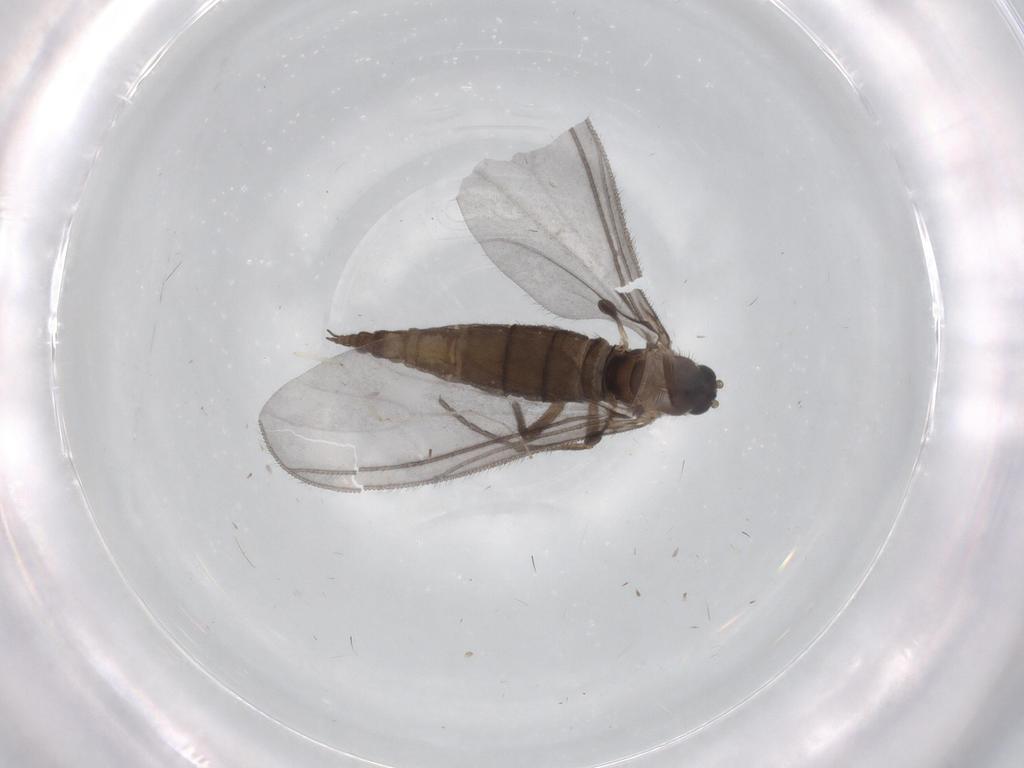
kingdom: Animalia
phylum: Arthropoda
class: Insecta
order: Diptera
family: Sciaridae
